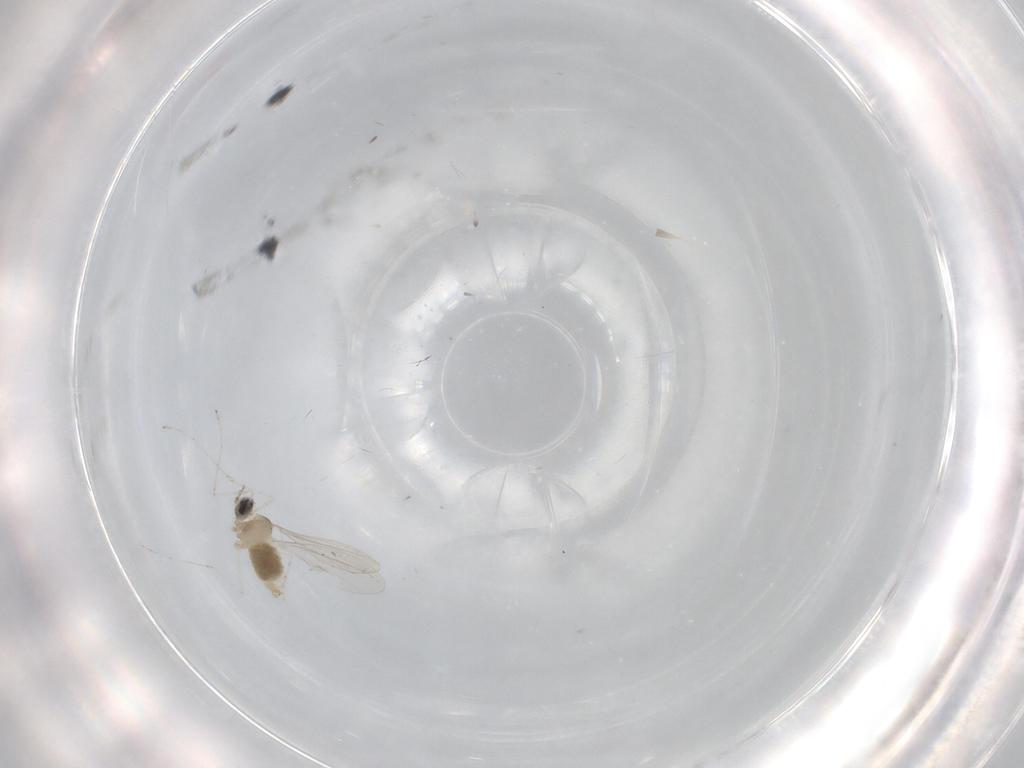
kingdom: Animalia
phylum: Arthropoda
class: Insecta
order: Diptera
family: Cecidomyiidae
